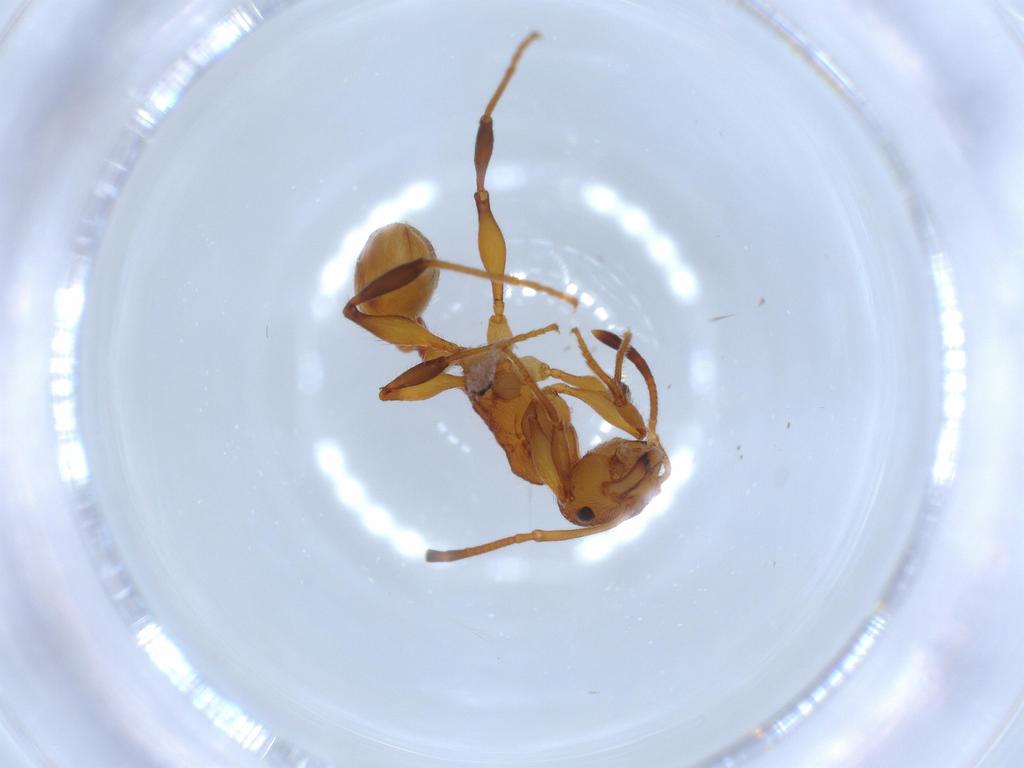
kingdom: Animalia
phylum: Arthropoda
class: Insecta
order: Hymenoptera
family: Formicidae
